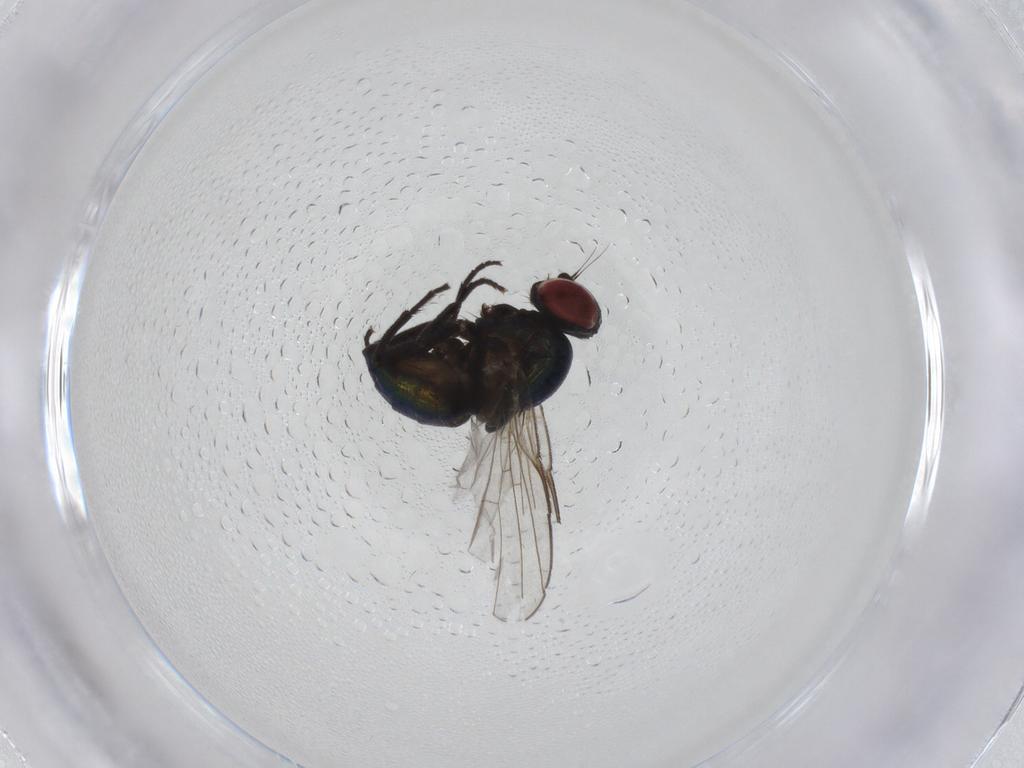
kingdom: Animalia
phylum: Arthropoda
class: Insecta
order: Diptera
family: Agromyzidae
